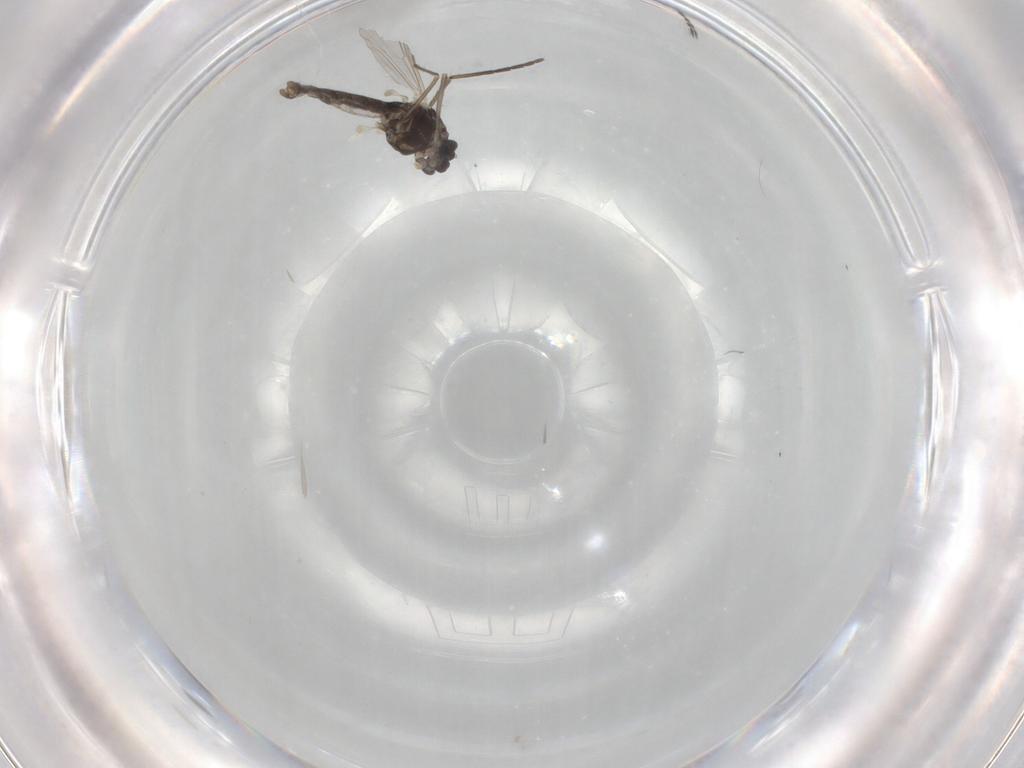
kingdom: Animalia
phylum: Arthropoda
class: Insecta
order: Diptera
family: Sciaridae
